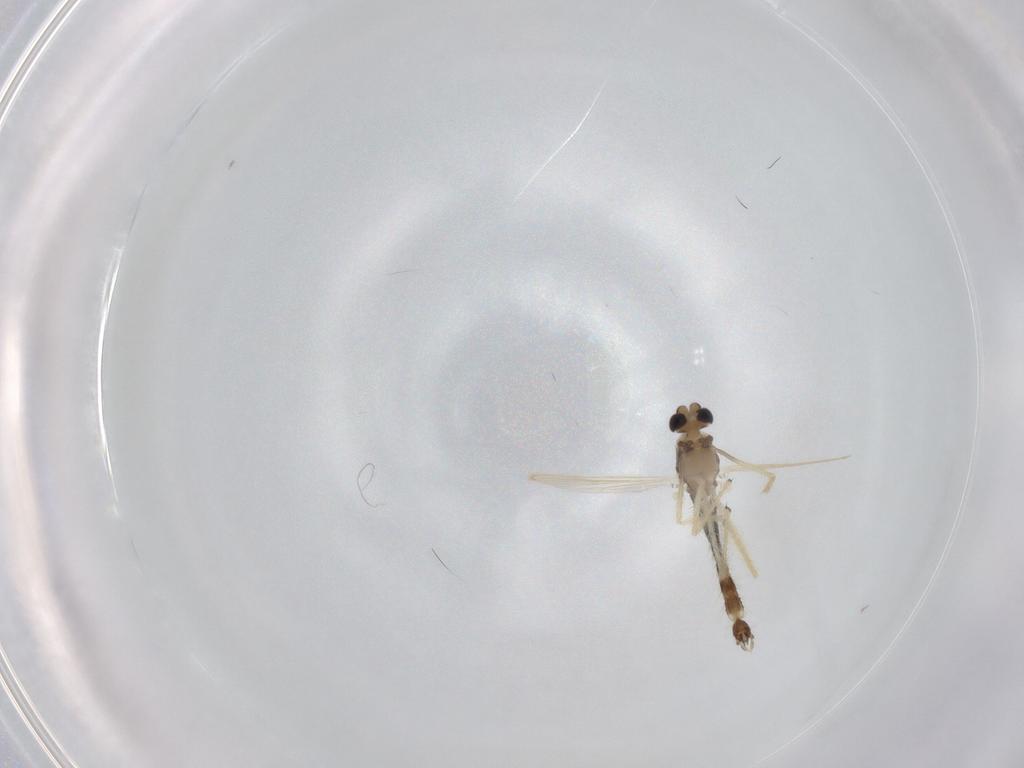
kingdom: Animalia
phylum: Arthropoda
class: Insecta
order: Diptera
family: Chironomidae
